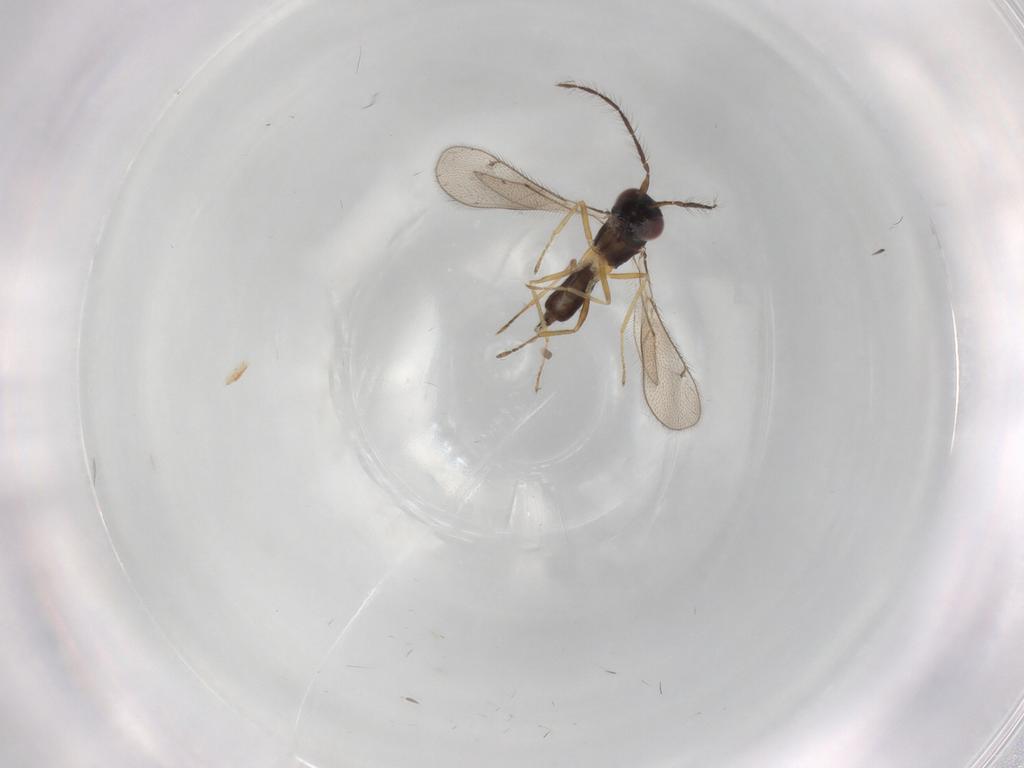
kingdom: Animalia
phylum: Arthropoda
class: Insecta
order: Hymenoptera
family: Eulophidae
